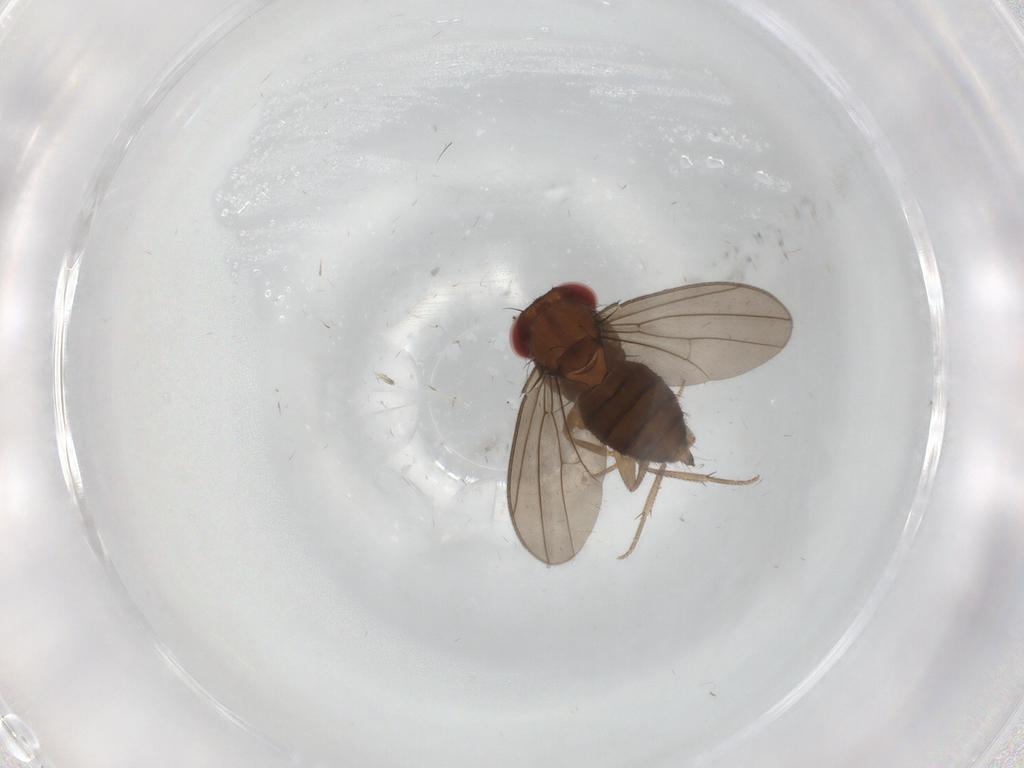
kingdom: Animalia
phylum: Arthropoda
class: Insecta
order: Diptera
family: Drosophilidae
